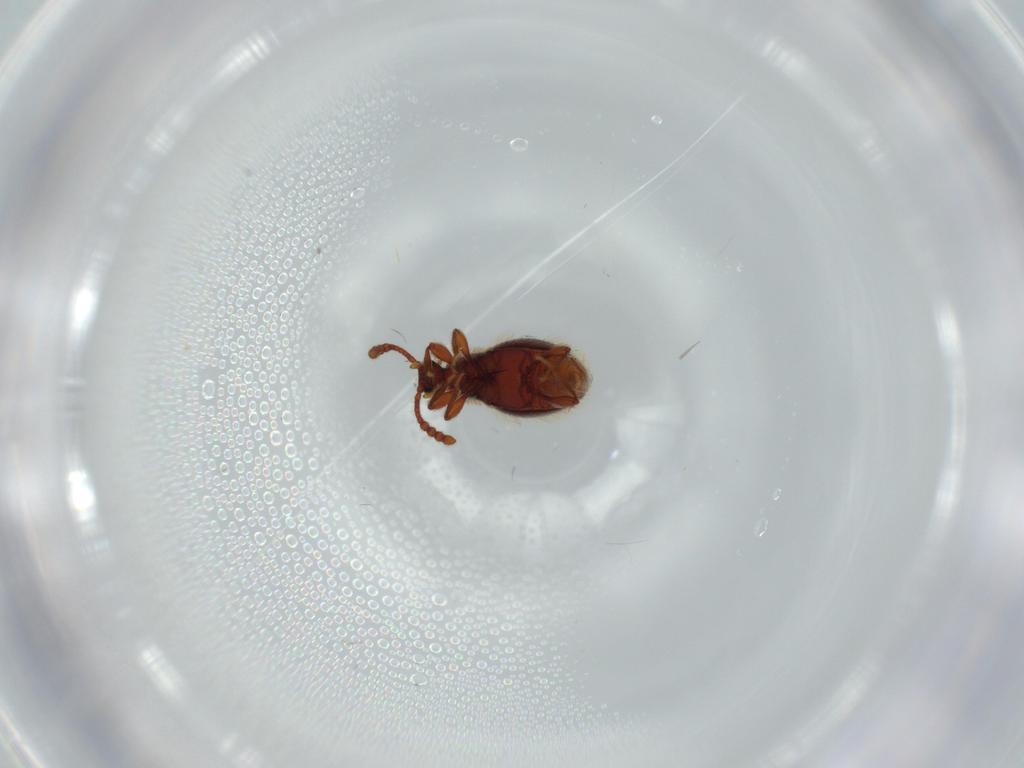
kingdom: Animalia
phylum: Arthropoda
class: Insecta
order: Coleoptera
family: Staphylinidae
